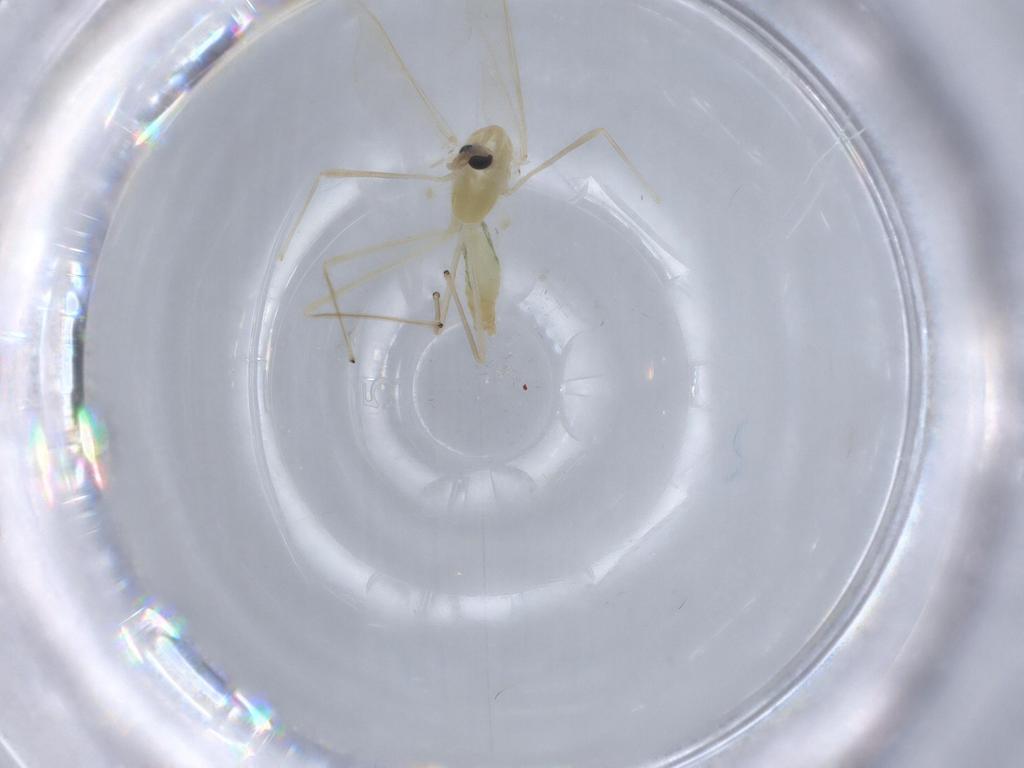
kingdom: Animalia
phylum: Arthropoda
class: Insecta
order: Diptera
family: Chironomidae
